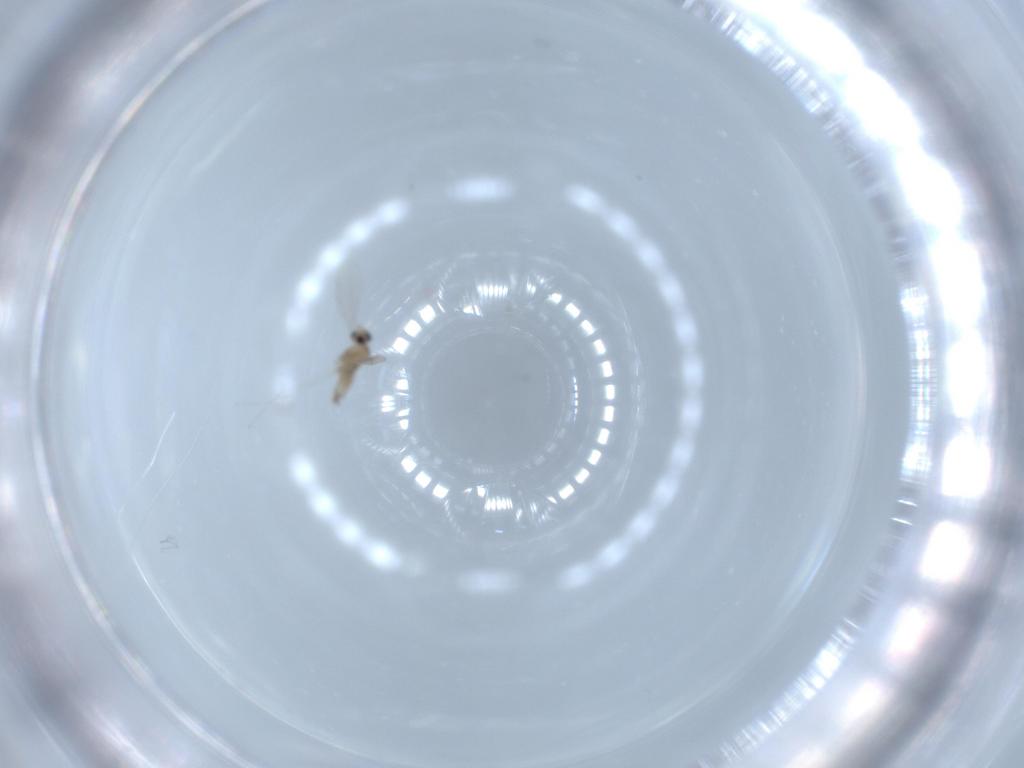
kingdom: Animalia
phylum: Arthropoda
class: Insecta
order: Diptera
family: Cecidomyiidae
